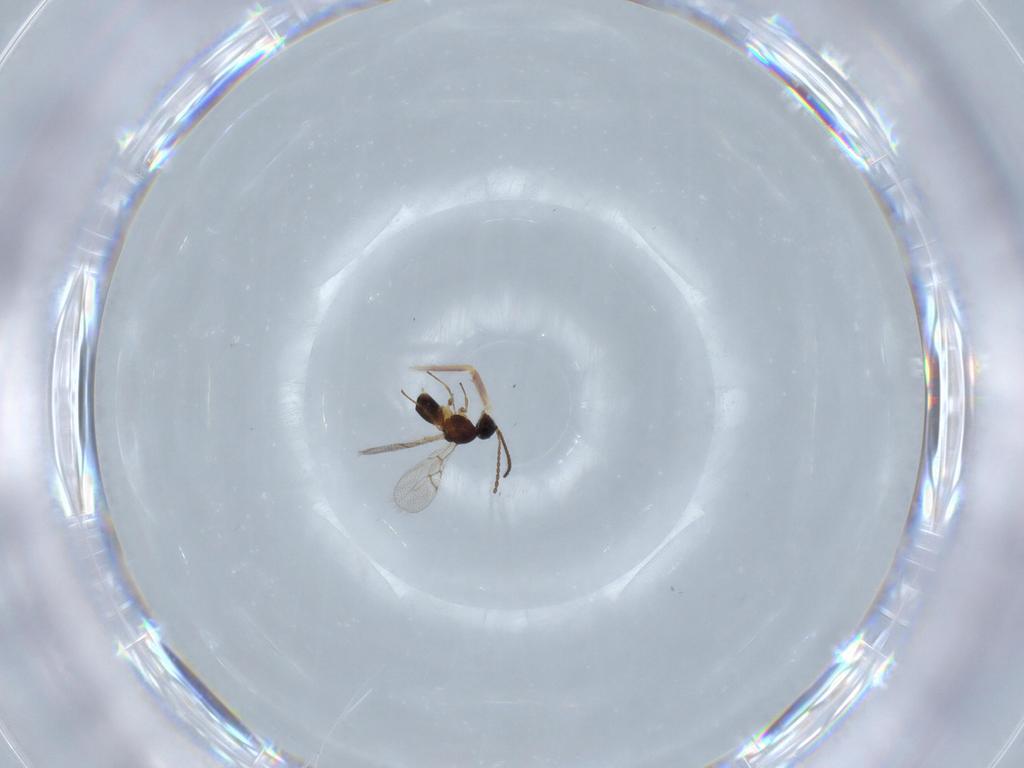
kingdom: Animalia
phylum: Arthropoda
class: Insecta
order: Hymenoptera
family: Figitidae
